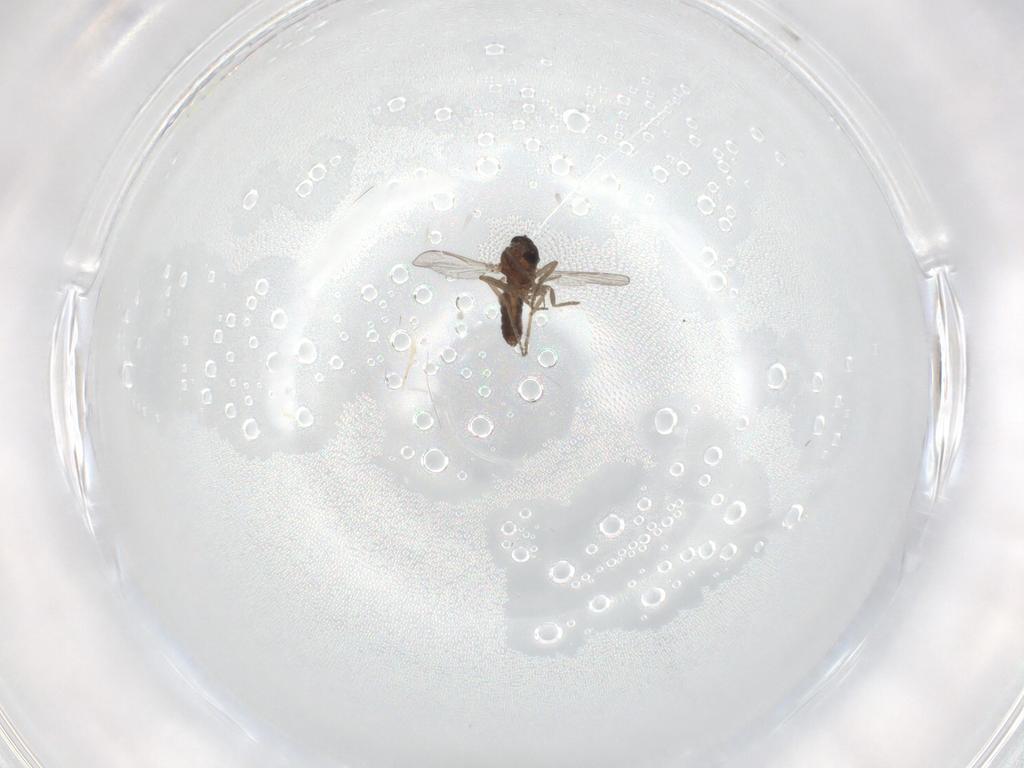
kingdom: Animalia
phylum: Arthropoda
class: Insecta
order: Diptera
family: Ceratopogonidae
